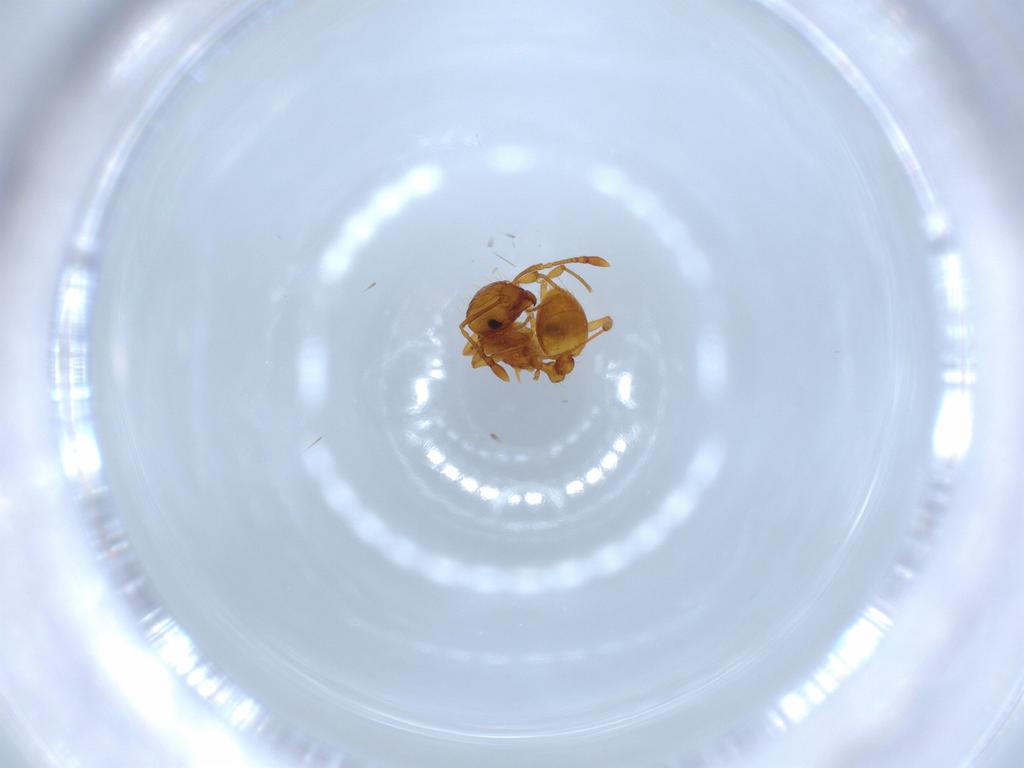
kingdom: Animalia
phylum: Arthropoda
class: Insecta
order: Hymenoptera
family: Formicidae
